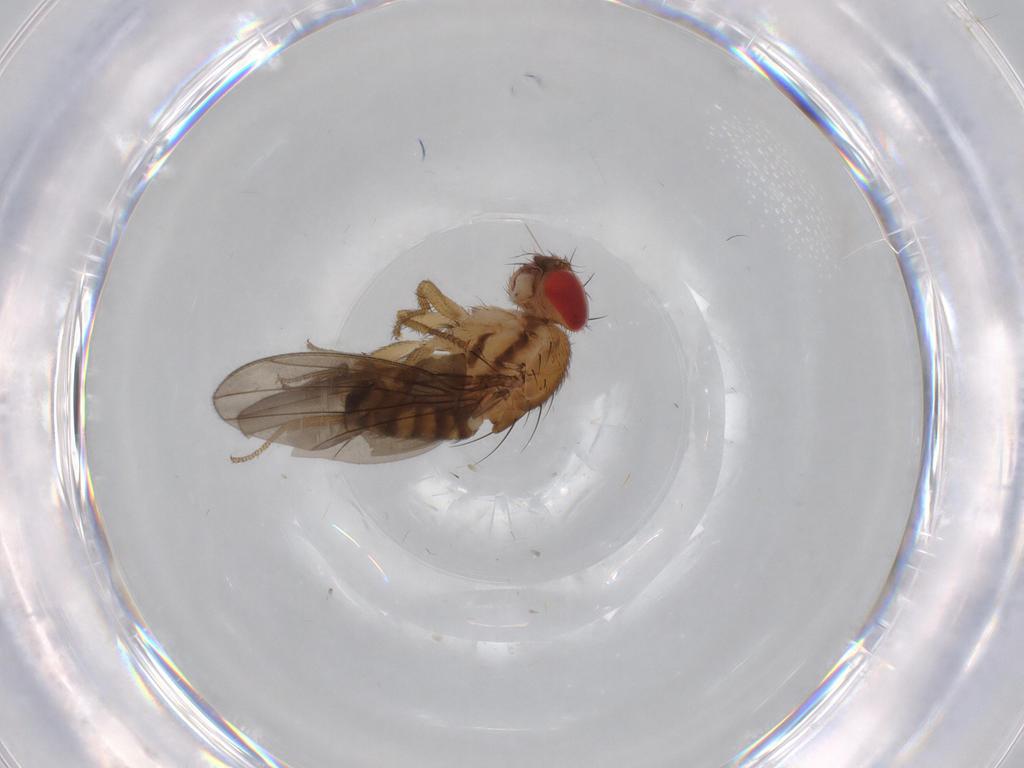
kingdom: Animalia
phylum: Arthropoda
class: Insecta
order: Diptera
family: Drosophilidae
